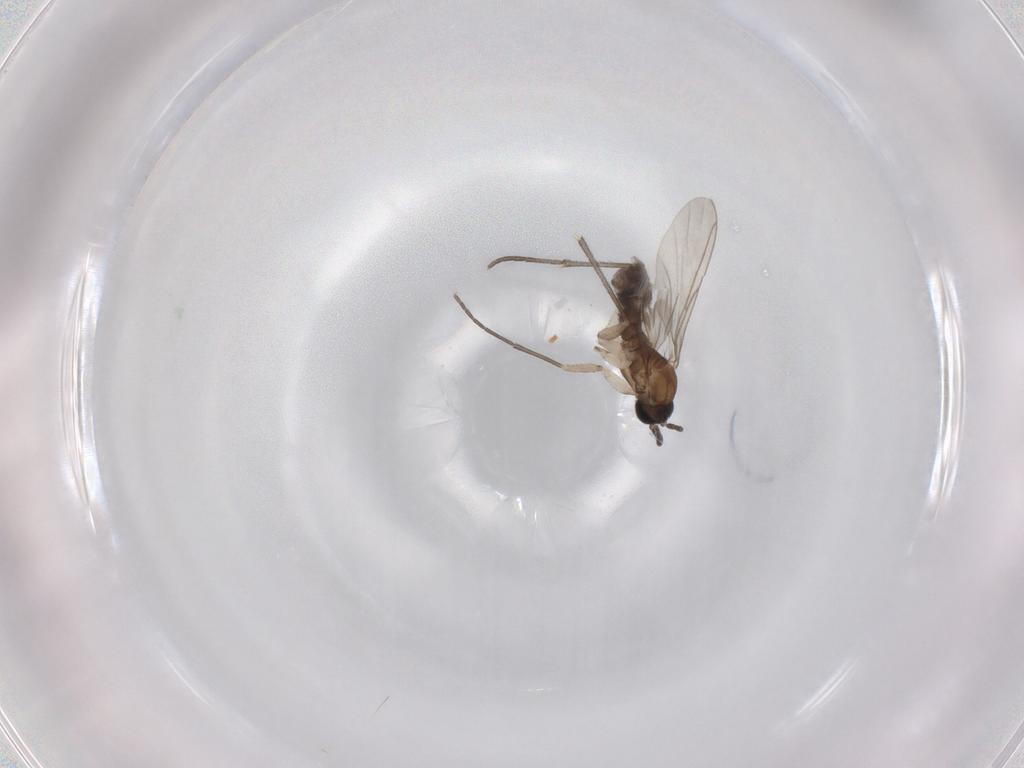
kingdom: Animalia
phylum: Arthropoda
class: Insecta
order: Diptera
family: Sciaridae
